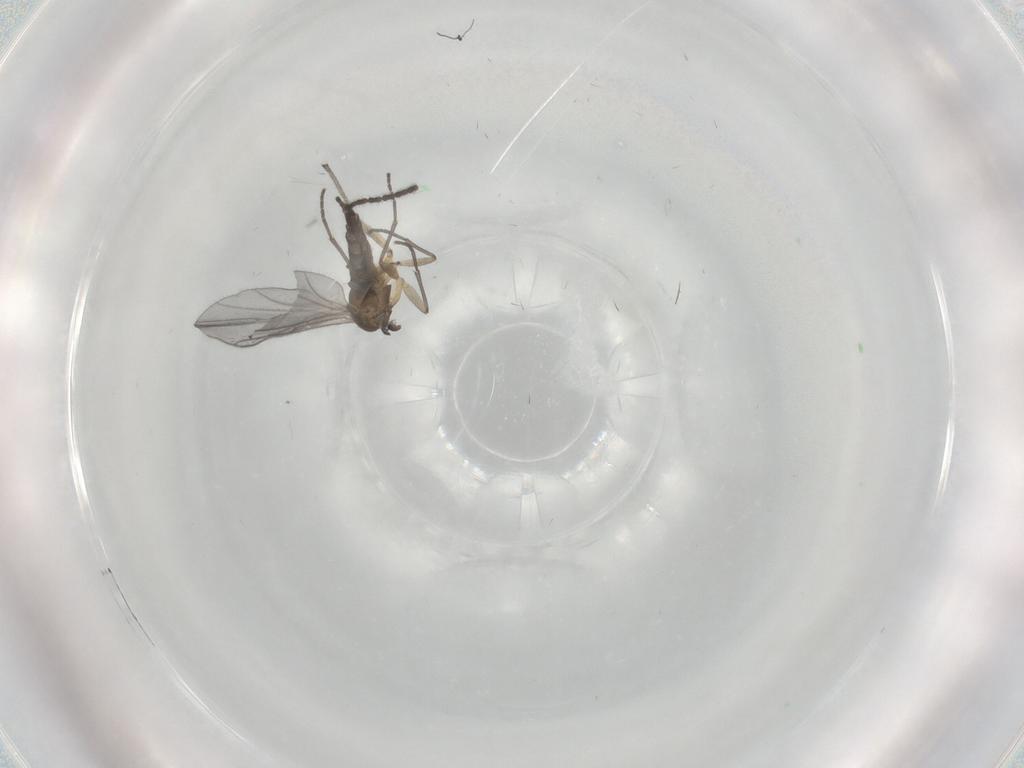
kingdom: Animalia
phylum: Arthropoda
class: Insecta
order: Diptera
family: Sciaridae
